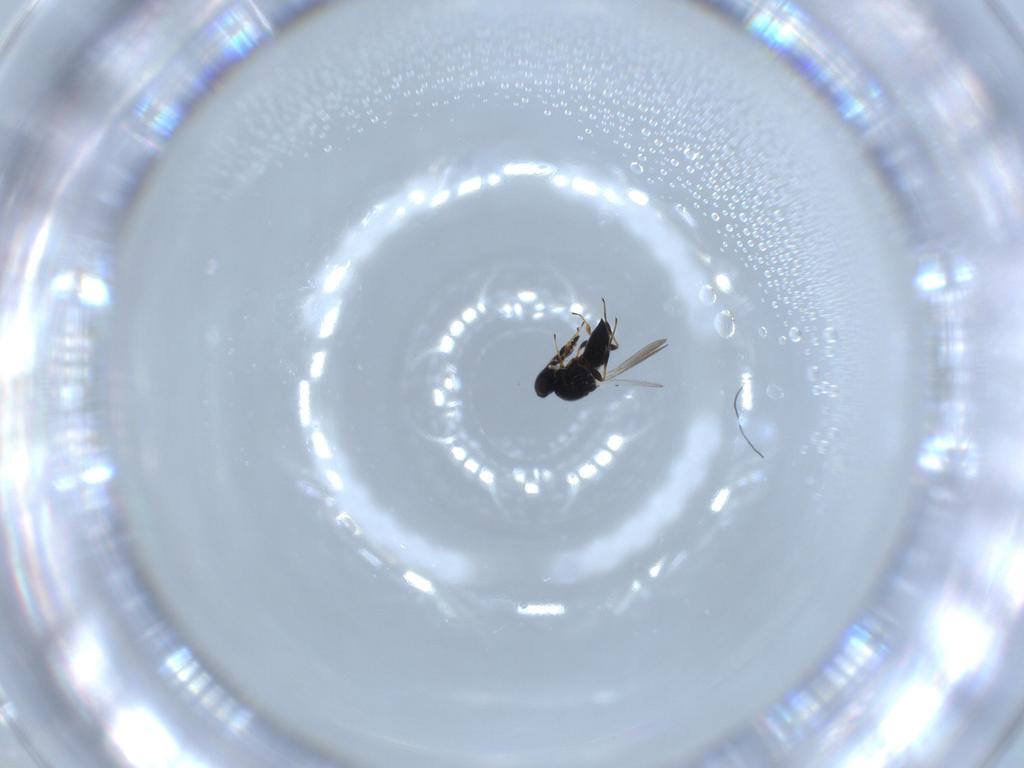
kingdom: Animalia
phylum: Arthropoda
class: Insecta
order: Hymenoptera
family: Platygastridae
